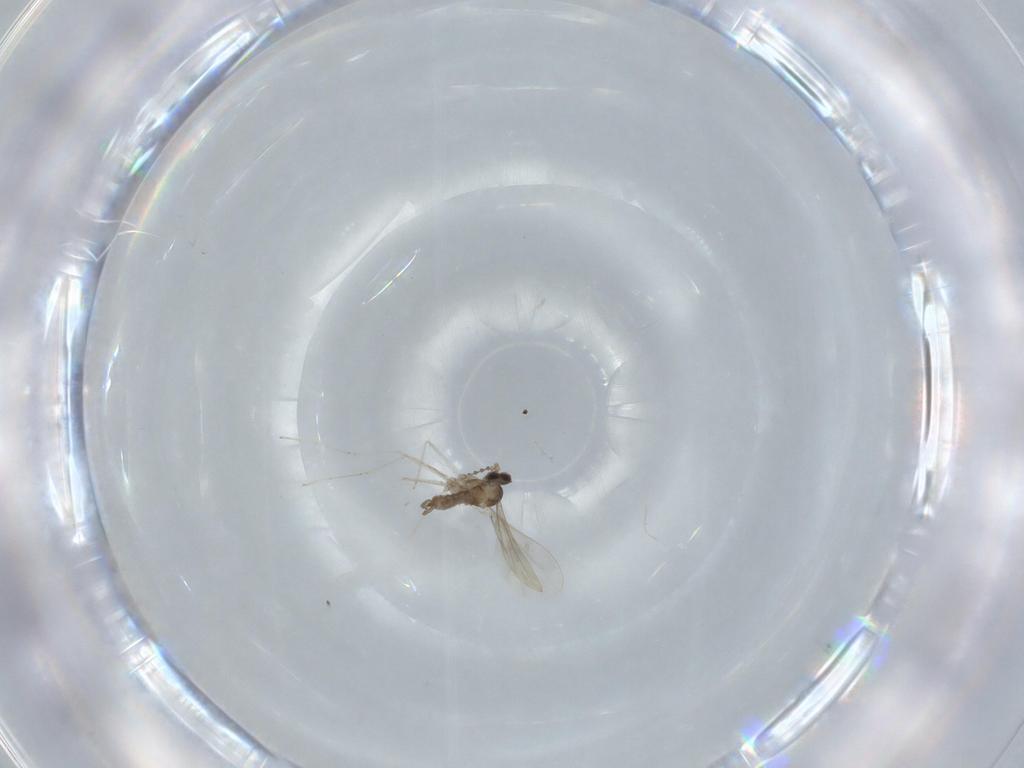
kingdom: Animalia
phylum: Arthropoda
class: Insecta
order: Diptera
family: Cecidomyiidae
